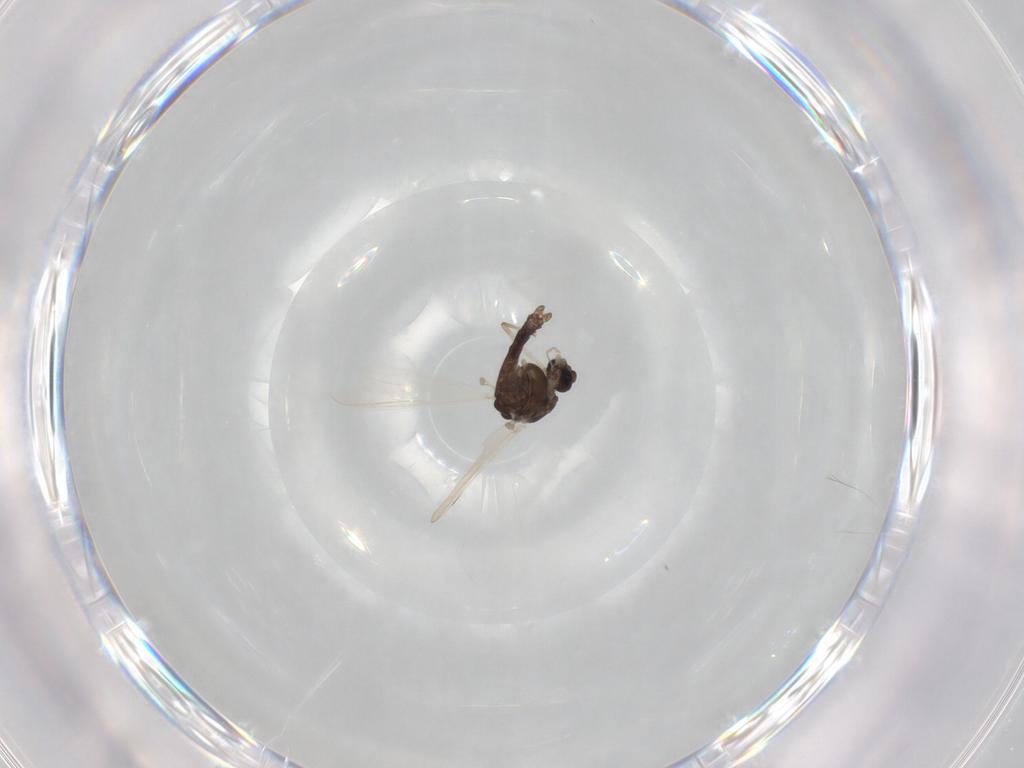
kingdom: Animalia
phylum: Arthropoda
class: Insecta
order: Diptera
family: Chironomidae
